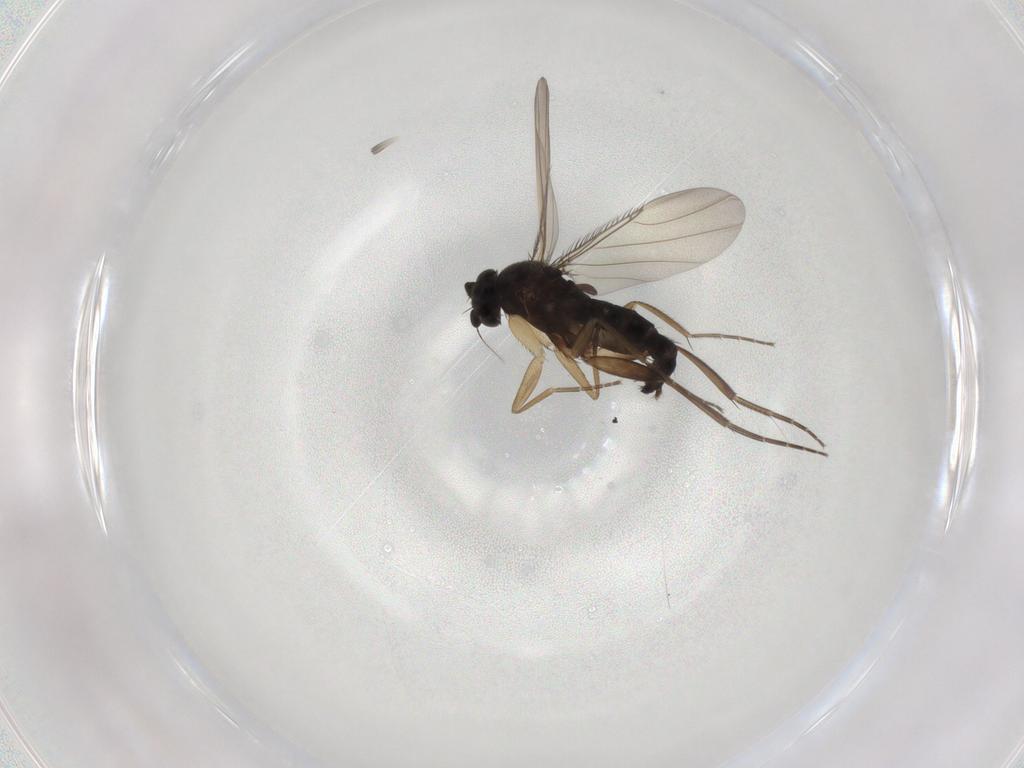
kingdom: Animalia
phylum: Arthropoda
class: Insecta
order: Diptera
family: Phoridae
